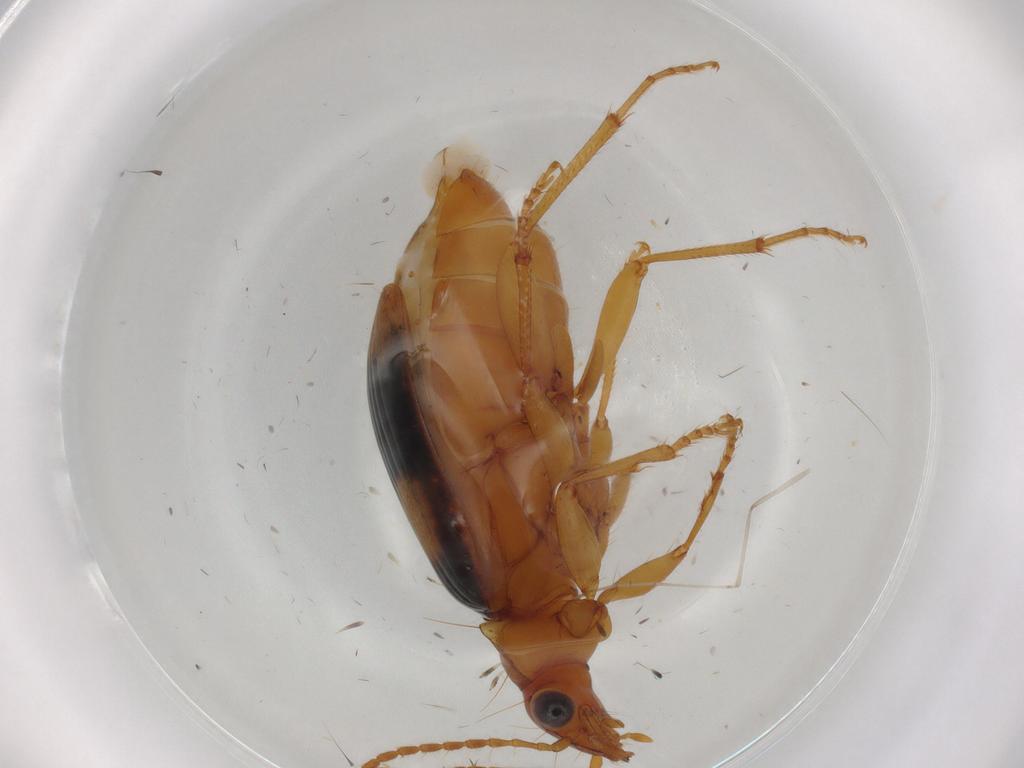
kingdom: Animalia
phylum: Arthropoda
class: Insecta
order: Coleoptera
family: Carabidae
